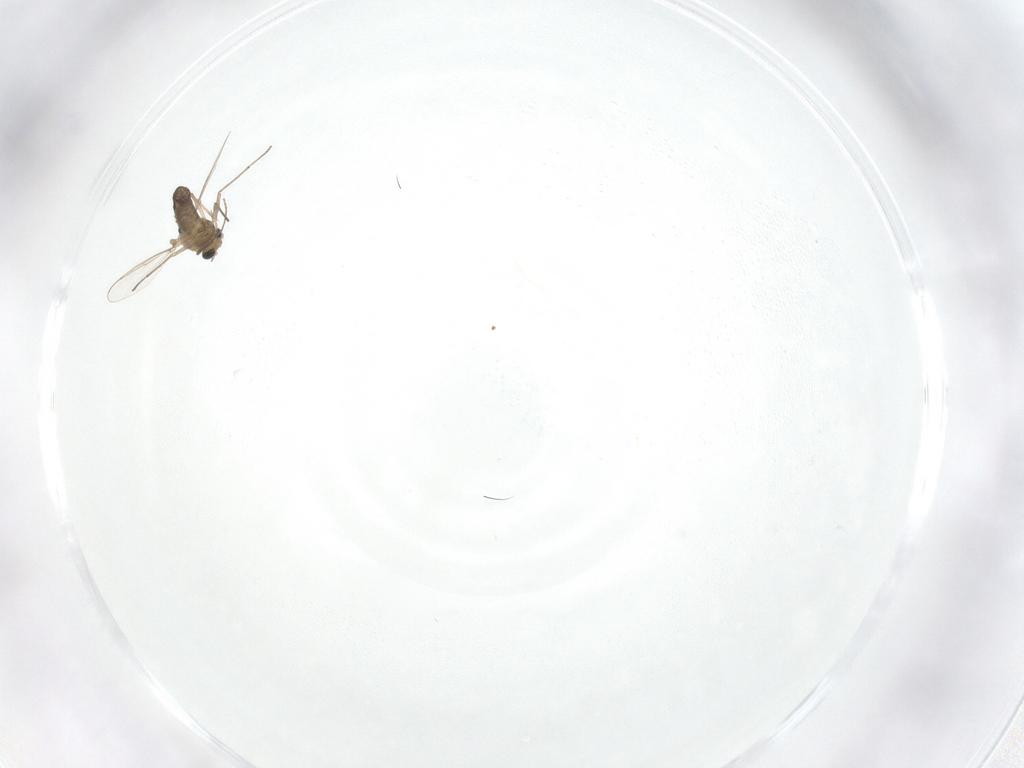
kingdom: Animalia
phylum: Arthropoda
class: Insecta
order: Diptera
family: Chironomidae
